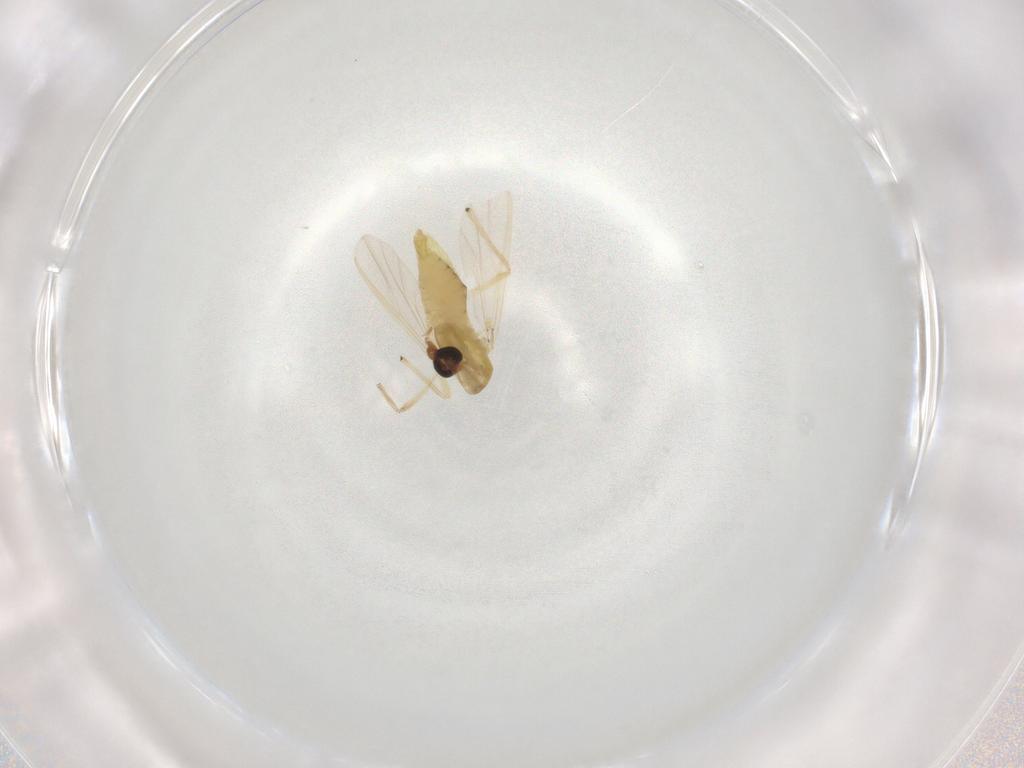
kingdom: Animalia
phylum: Arthropoda
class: Insecta
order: Diptera
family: Chironomidae
